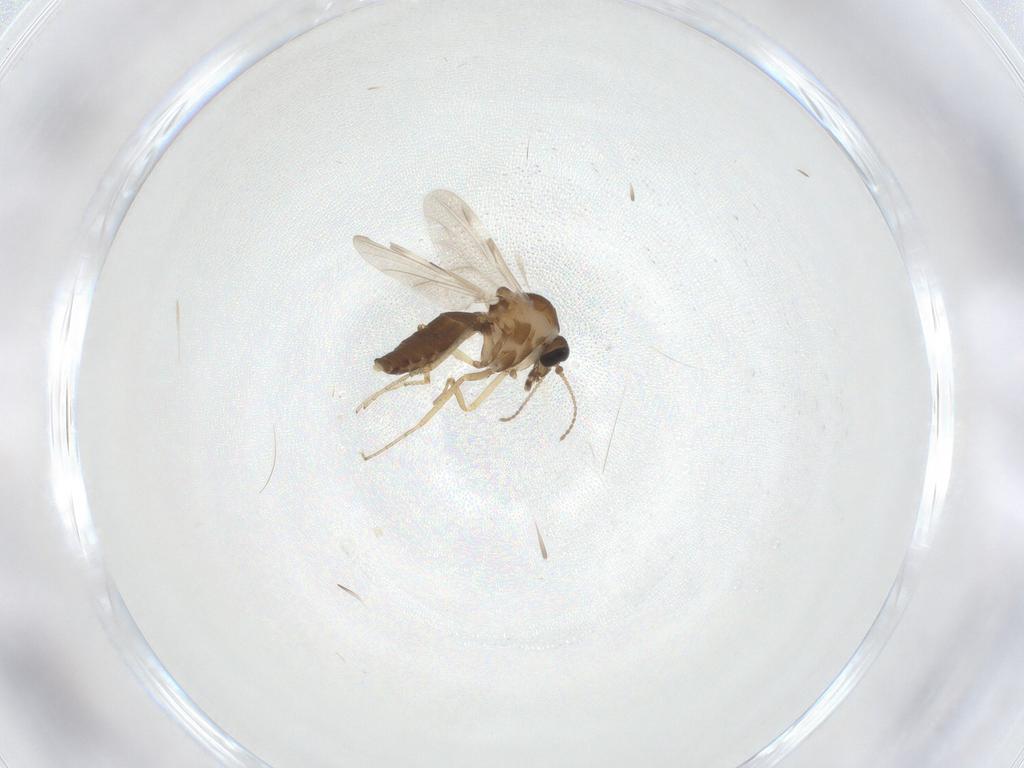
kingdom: Animalia
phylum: Arthropoda
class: Insecta
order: Diptera
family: Ceratopogonidae
